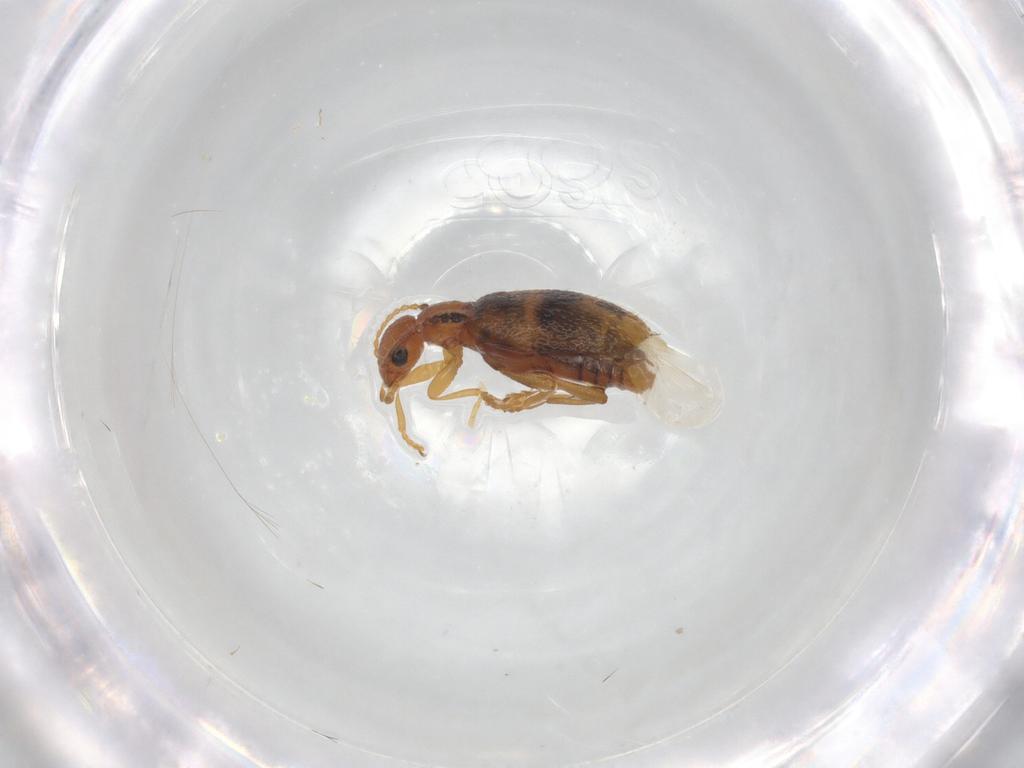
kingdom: Animalia
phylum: Arthropoda
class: Insecta
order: Coleoptera
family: Anthicidae
